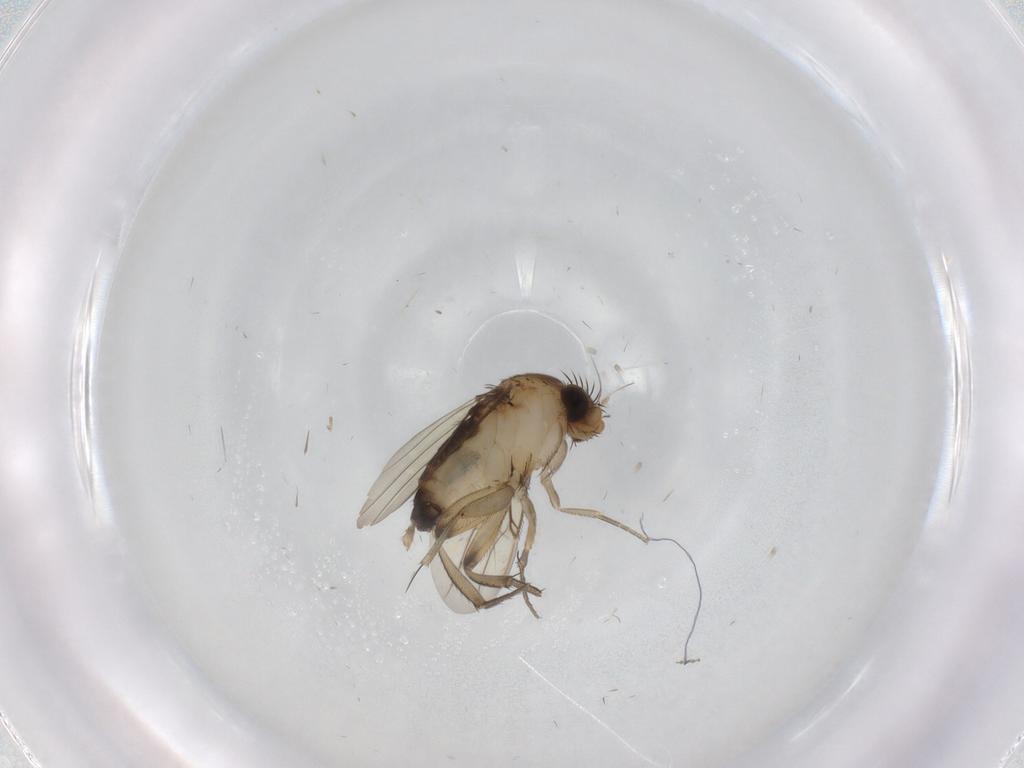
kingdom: Animalia
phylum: Arthropoda
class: Insecta
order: Diptera
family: Phoridae
